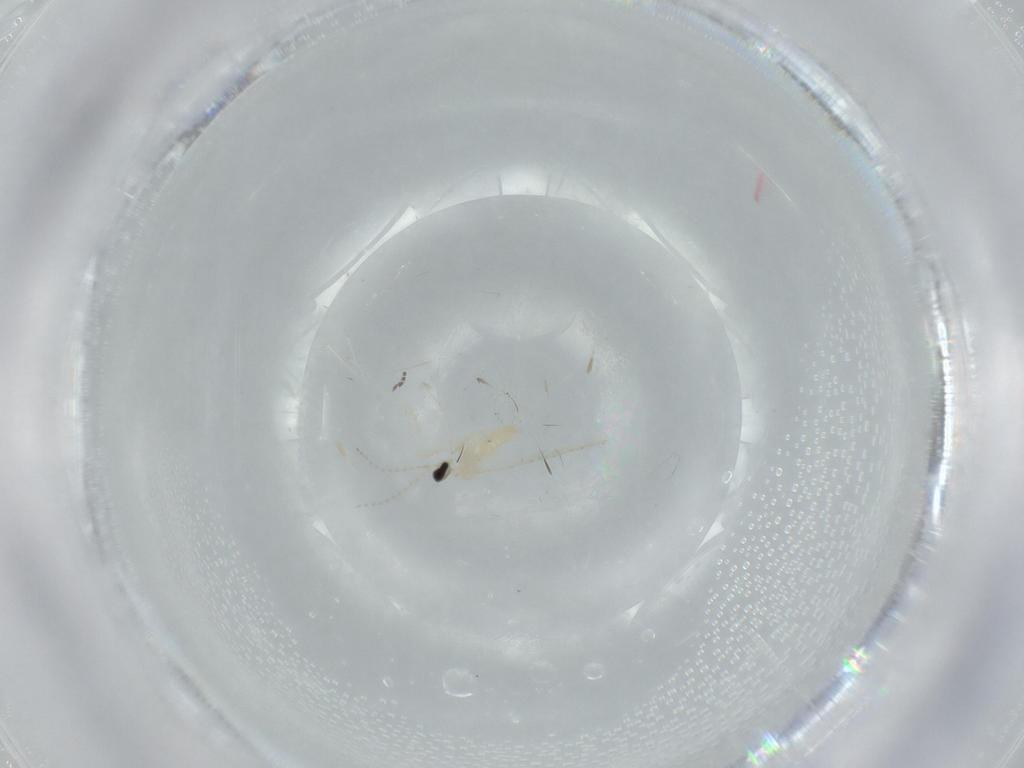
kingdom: Animalia
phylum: Arthropoda
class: Insecta
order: Diptera
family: Cecidomyiidae
